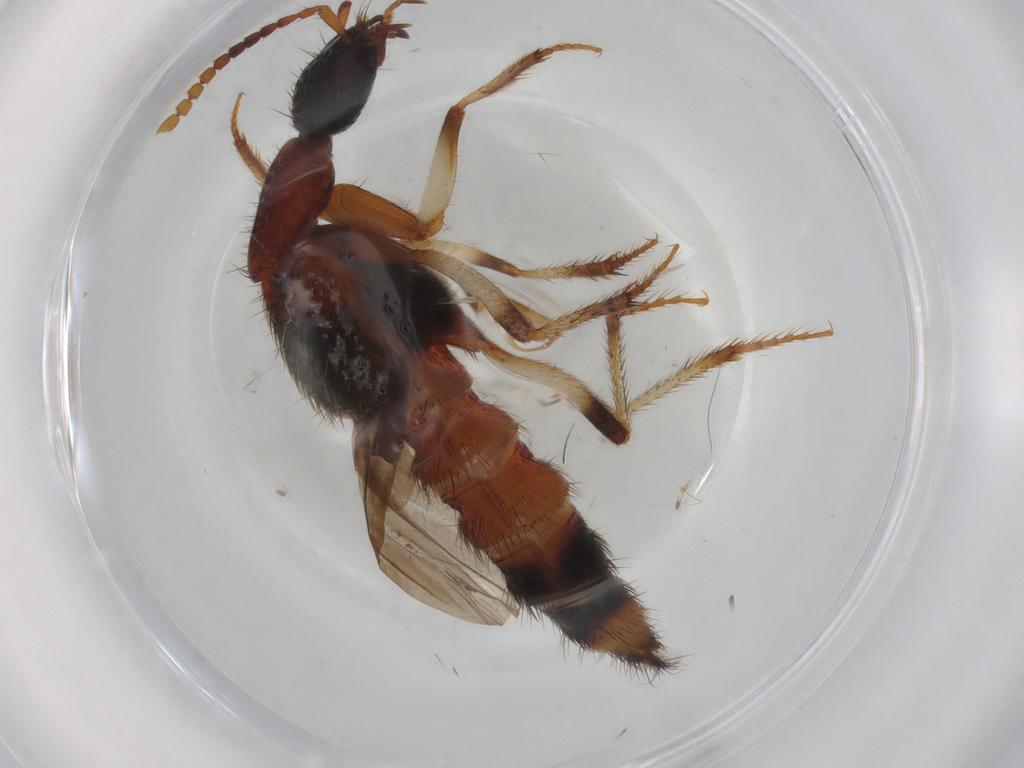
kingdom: Animalia
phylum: Arthropoda
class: Insecta
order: Coleoptera
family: Staphylinidae
